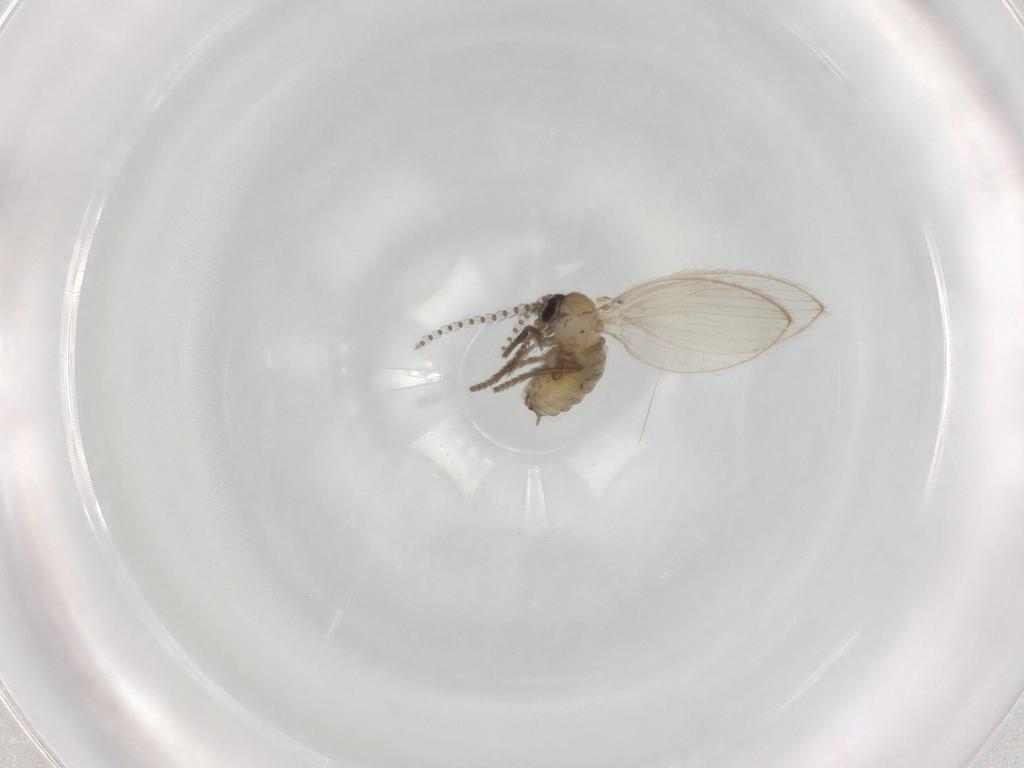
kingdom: Animalia
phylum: Arthropoda
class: Insecta
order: Diptera
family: Psychodidae
